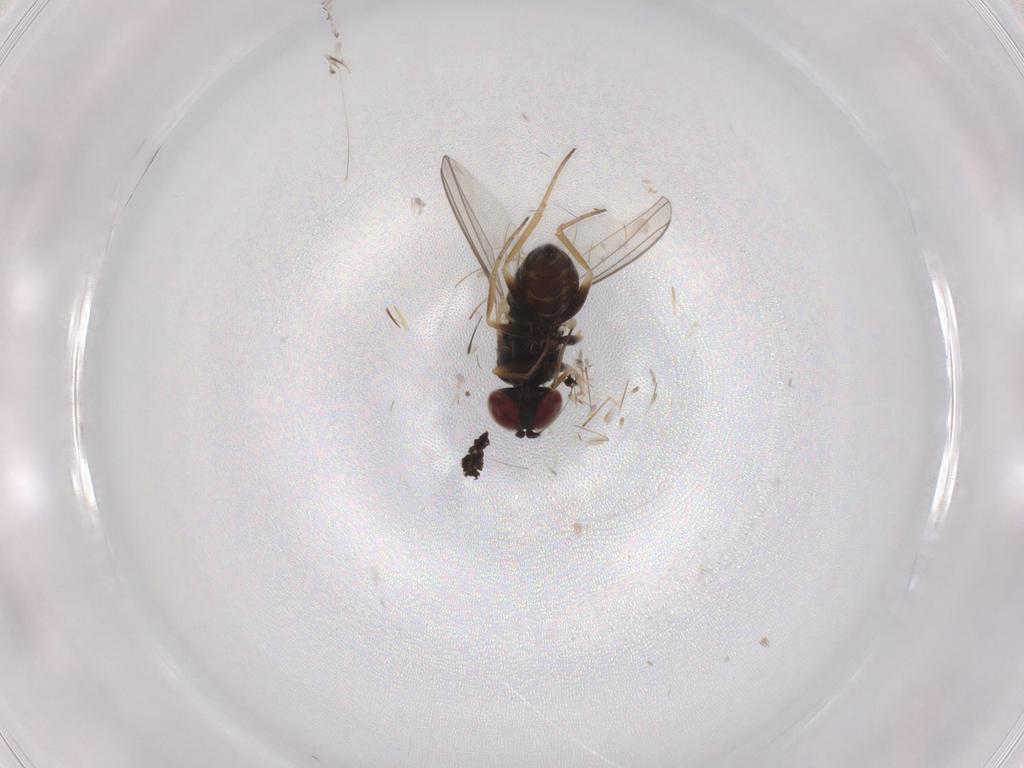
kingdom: Animalia
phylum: Arthropoda
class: Insecta
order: Diptera
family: Dolichopodidae
